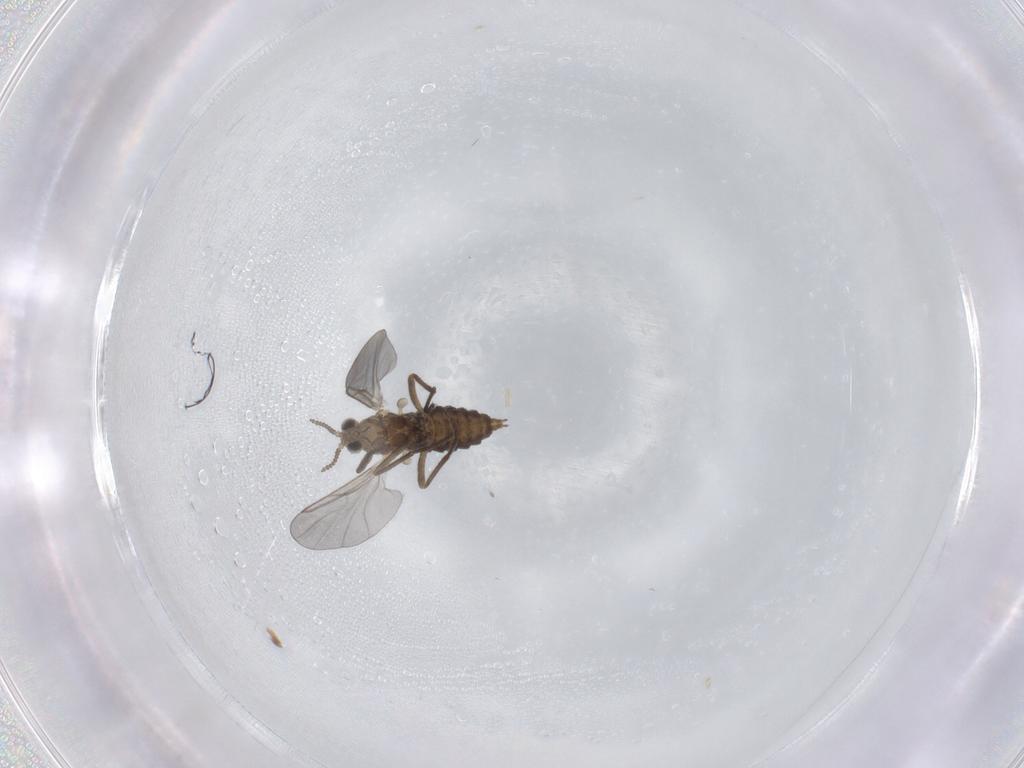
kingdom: Animalia
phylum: Arthropoda
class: Insecta
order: Diptera
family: Cecidomyiidae
